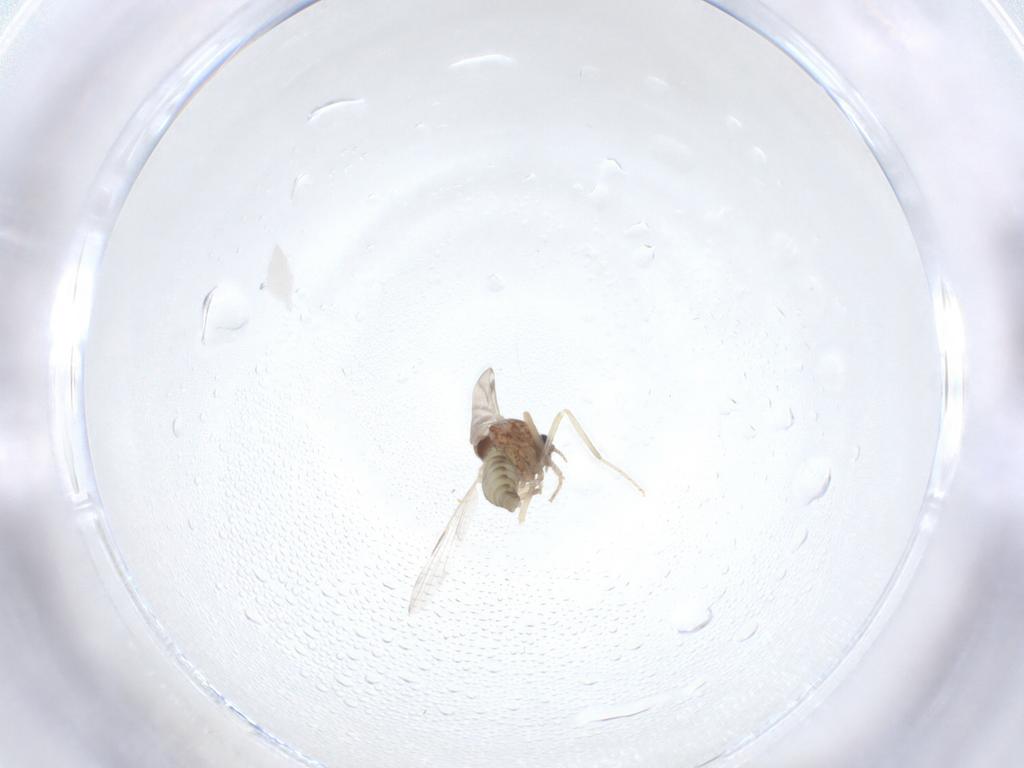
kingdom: Animalia
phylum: Arthropoda
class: Insecta
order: Diptera
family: Ceratopogonidae
